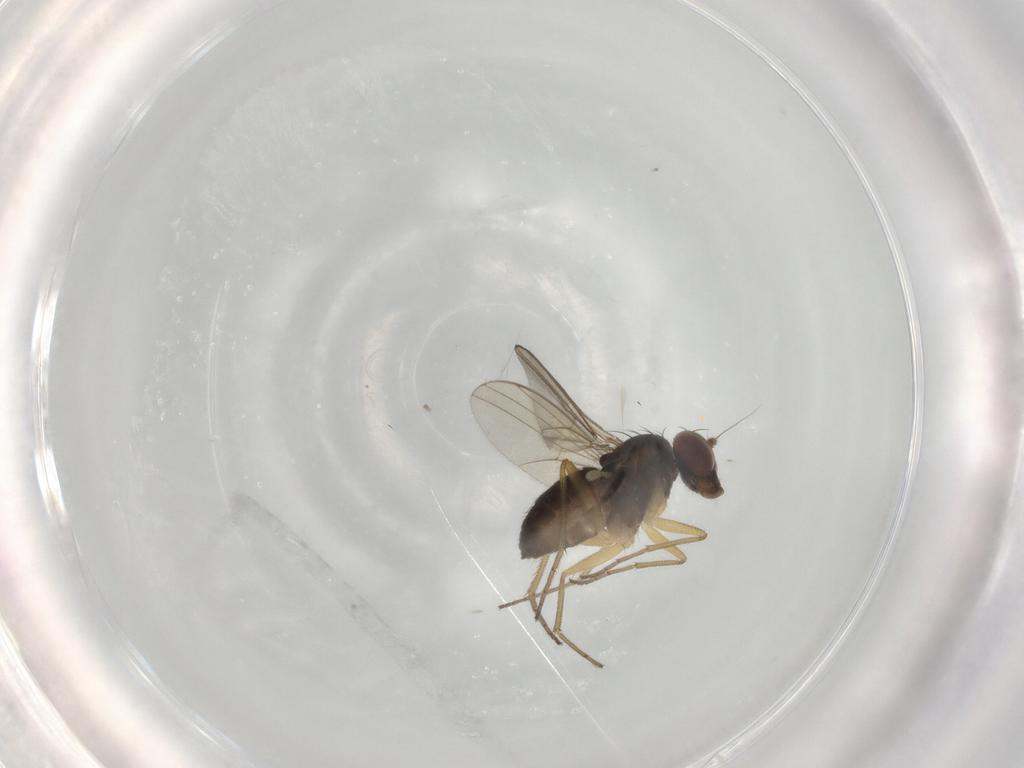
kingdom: Animalia
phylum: Arthropoda
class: Insecta
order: Diptera
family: Dolichopodidae
